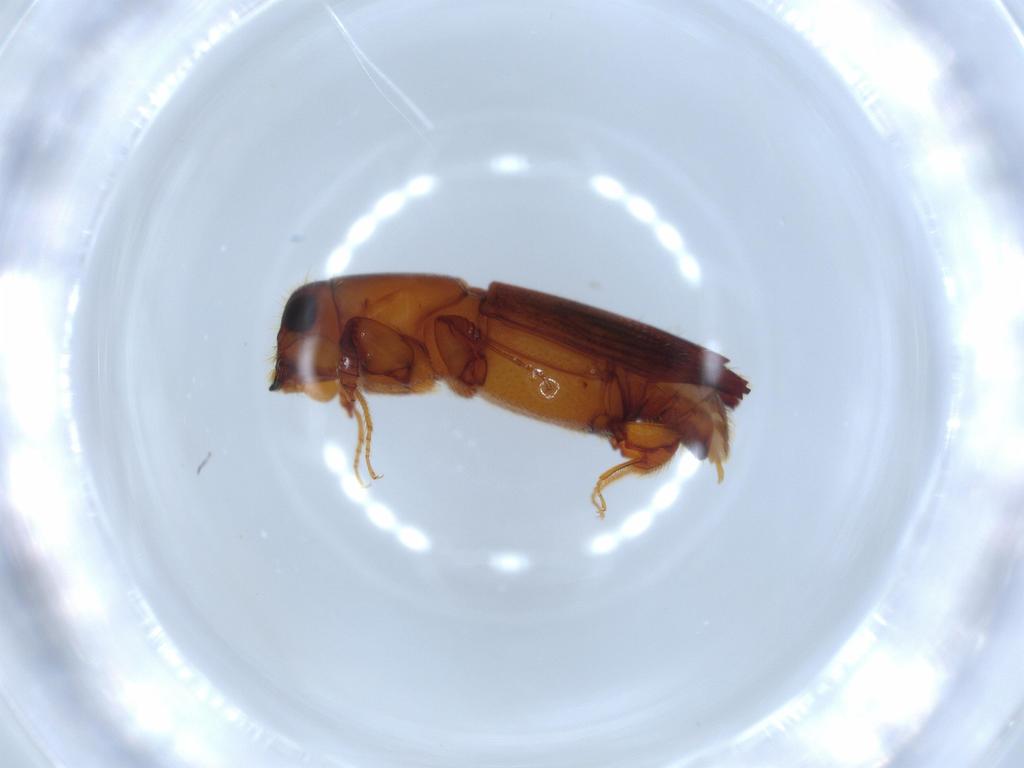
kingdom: Animalia
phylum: Arthropoda
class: Insecta
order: Coleoptera
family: Curculionidae
